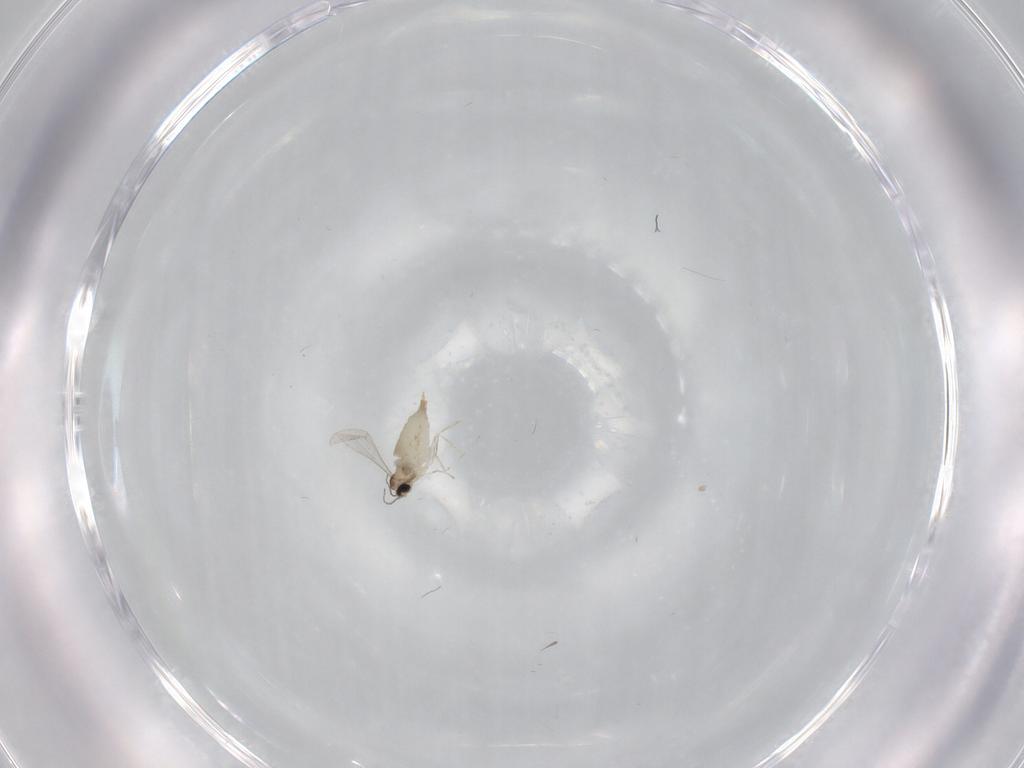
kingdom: Animalia
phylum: Arthropoda
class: Insecta
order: Diptera
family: Cecidomyiidae
